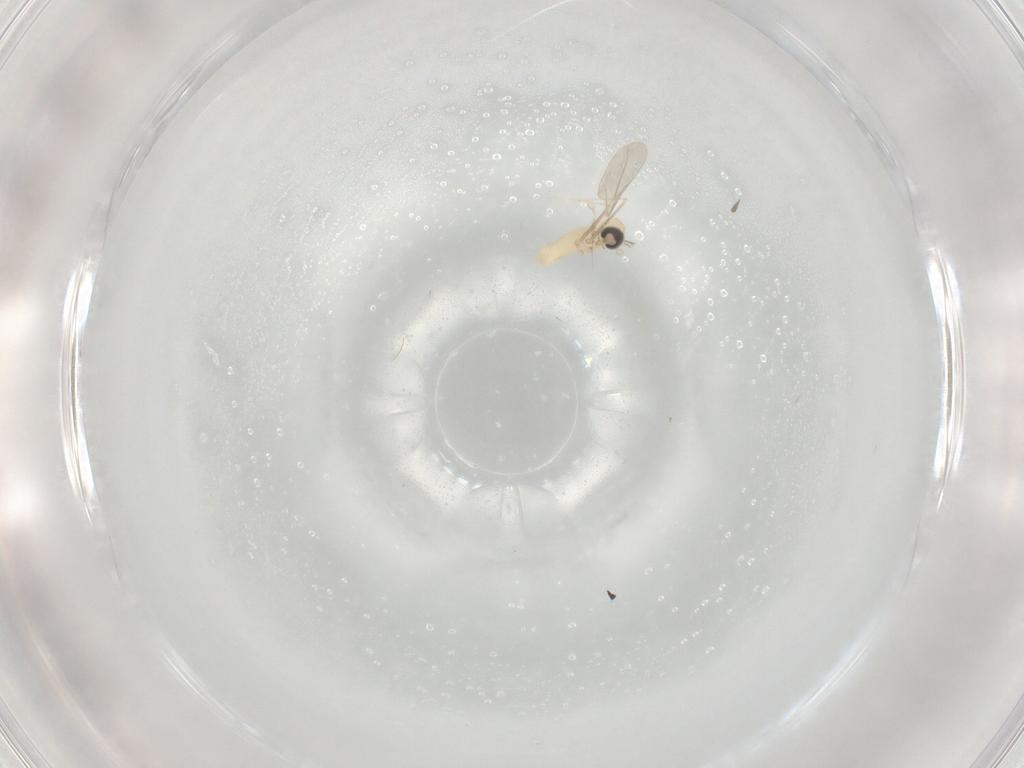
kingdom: Animalia
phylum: Arthropoda
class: Insecta
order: Diptera
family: Cecidomyiidae
